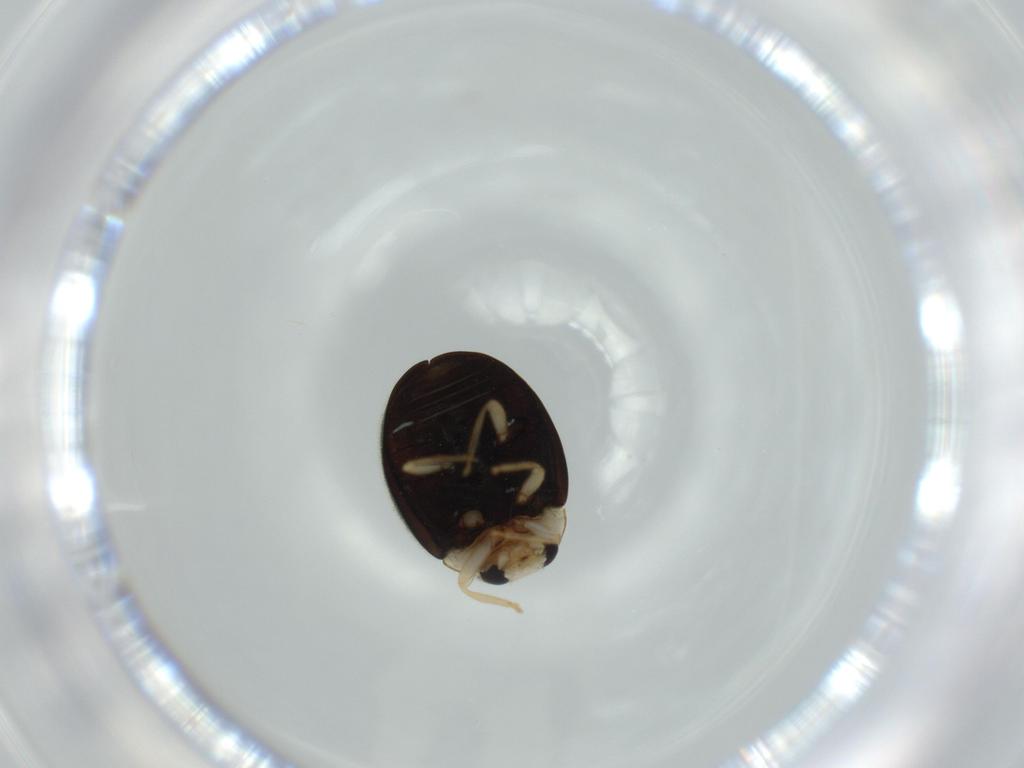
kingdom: Animalia
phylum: Arthropoda
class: Insecta
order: Coleoptera
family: Coccinellidae
